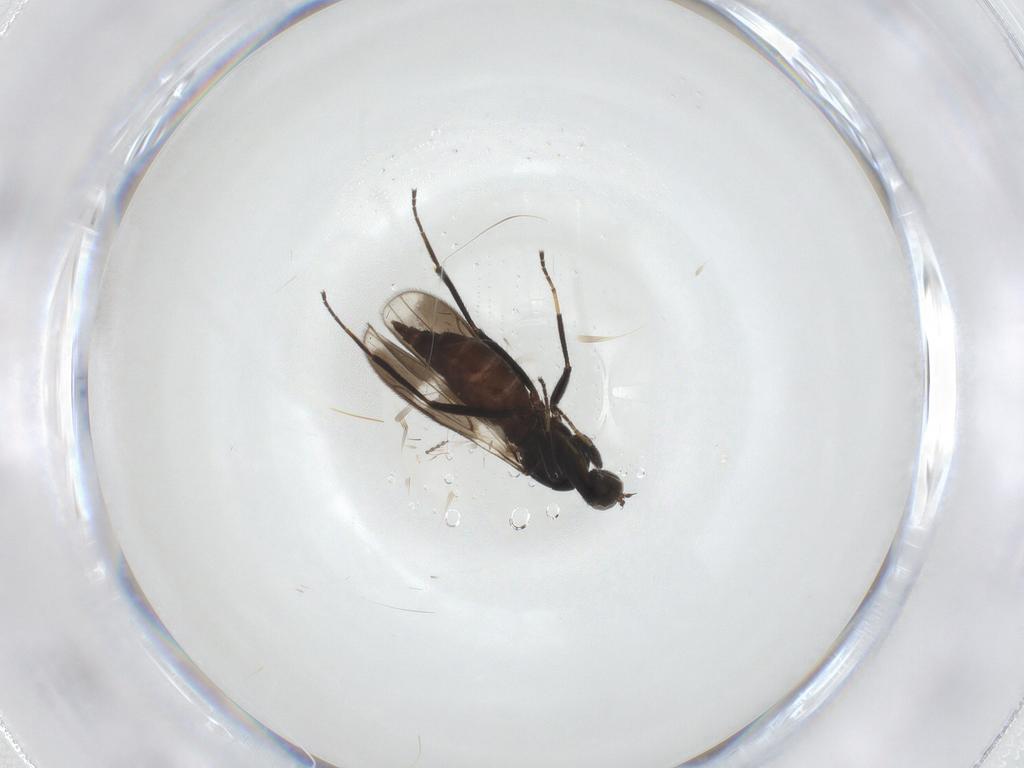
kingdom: Animalia
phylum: Arthropoda
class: Insecta
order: Diptera
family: Hybotidae
